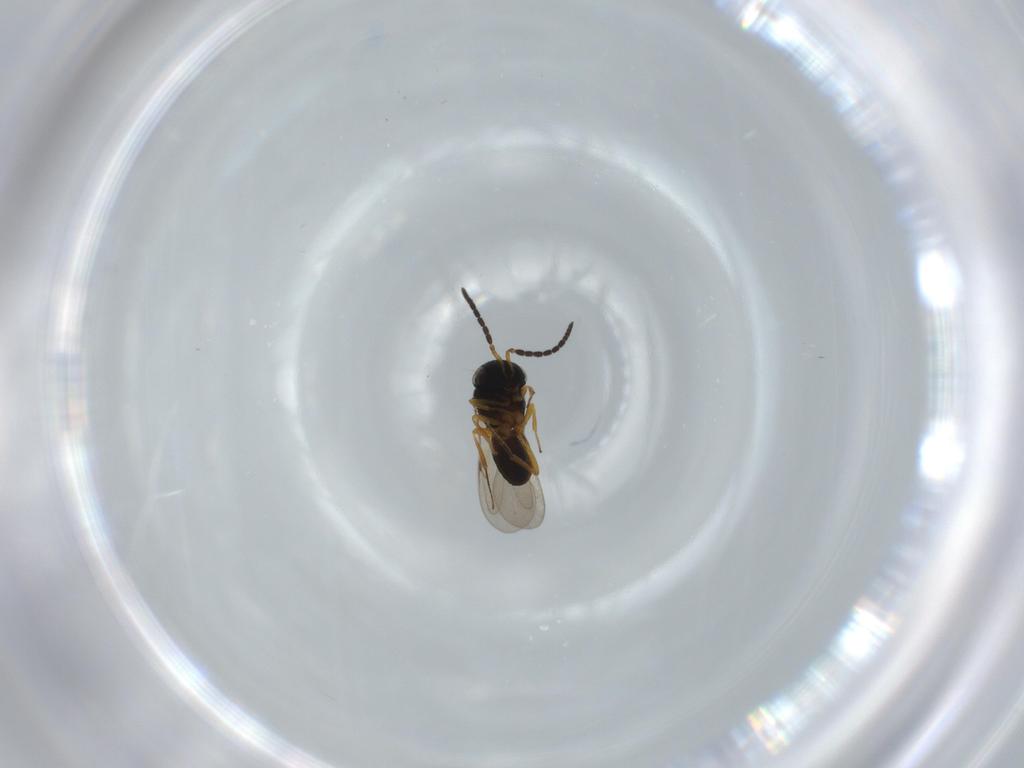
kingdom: Animalia
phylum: Arthropoda
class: Insecta
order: Coleoptera
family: Curculionidae
